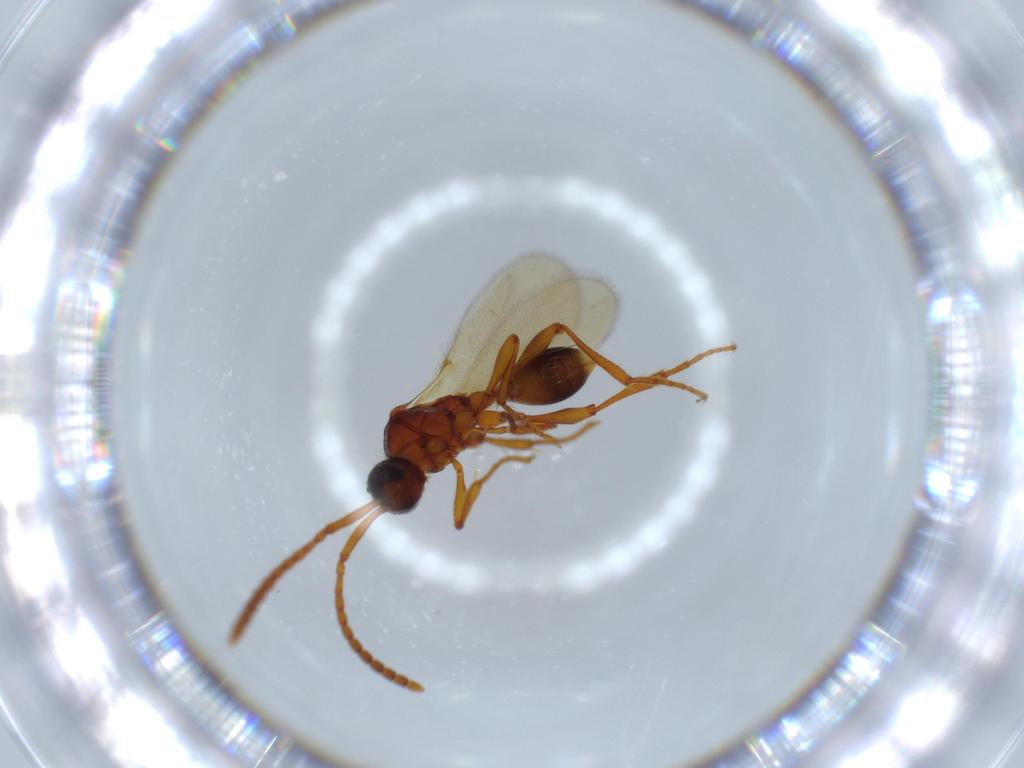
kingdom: Animalia
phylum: Arthropoda
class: Insecta
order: Hymenoptera
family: Diapriidae
